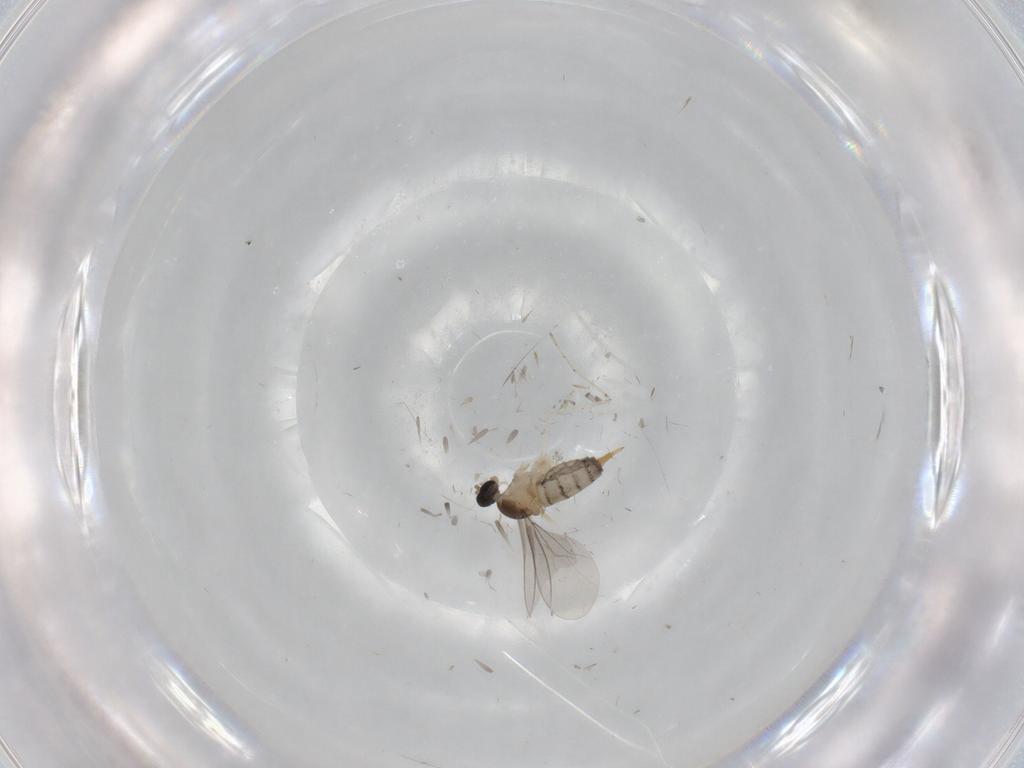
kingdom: Animalia
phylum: Arthropoda
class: Insecta
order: Diptera
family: Cecidomyiidae
